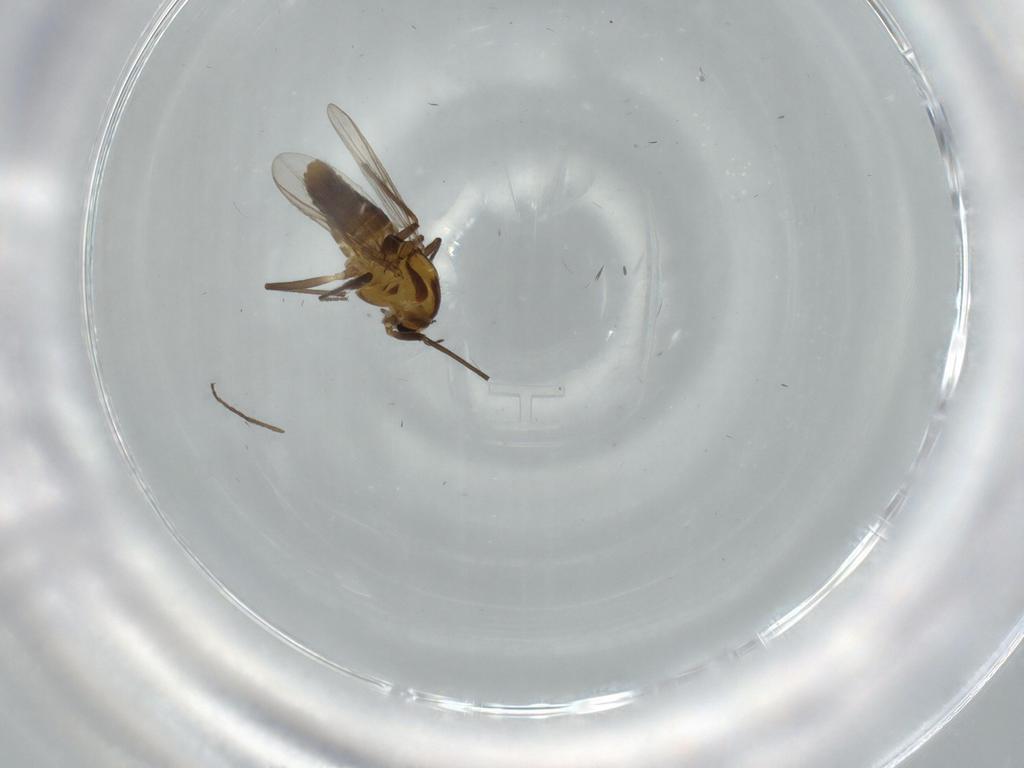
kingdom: Animalia
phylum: Arthropoda
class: Insecta
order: Diptera
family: Chironomidae
